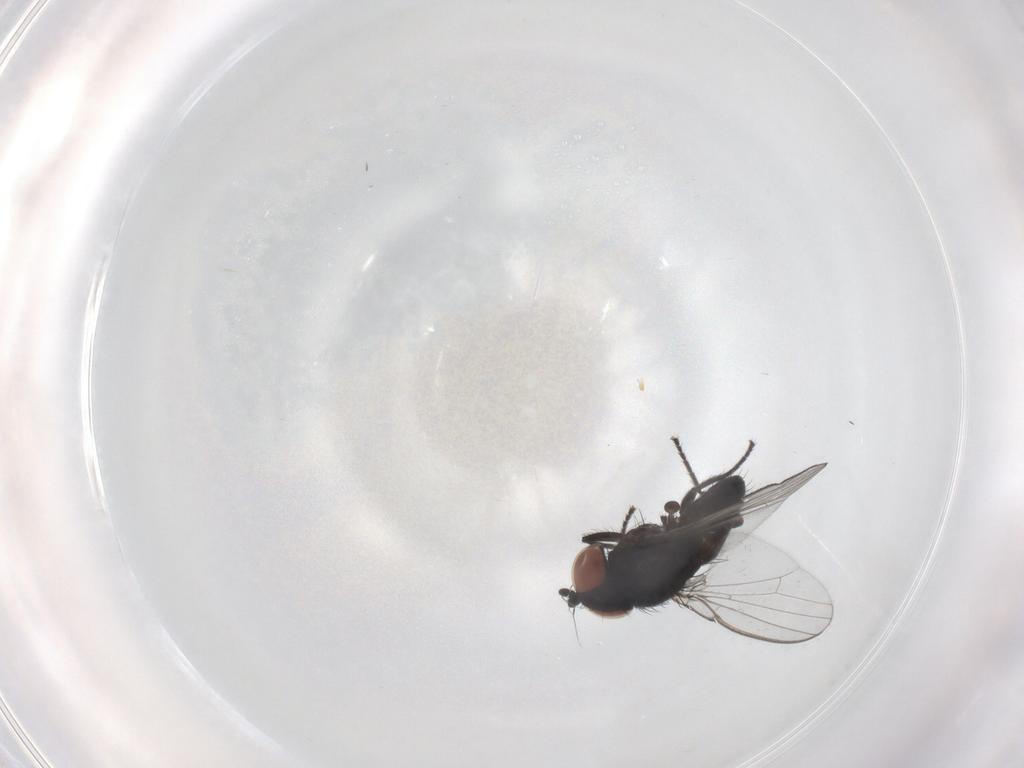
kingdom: Animalia
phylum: Arthropoda
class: Insecta
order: Diptera
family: Milichiidae
